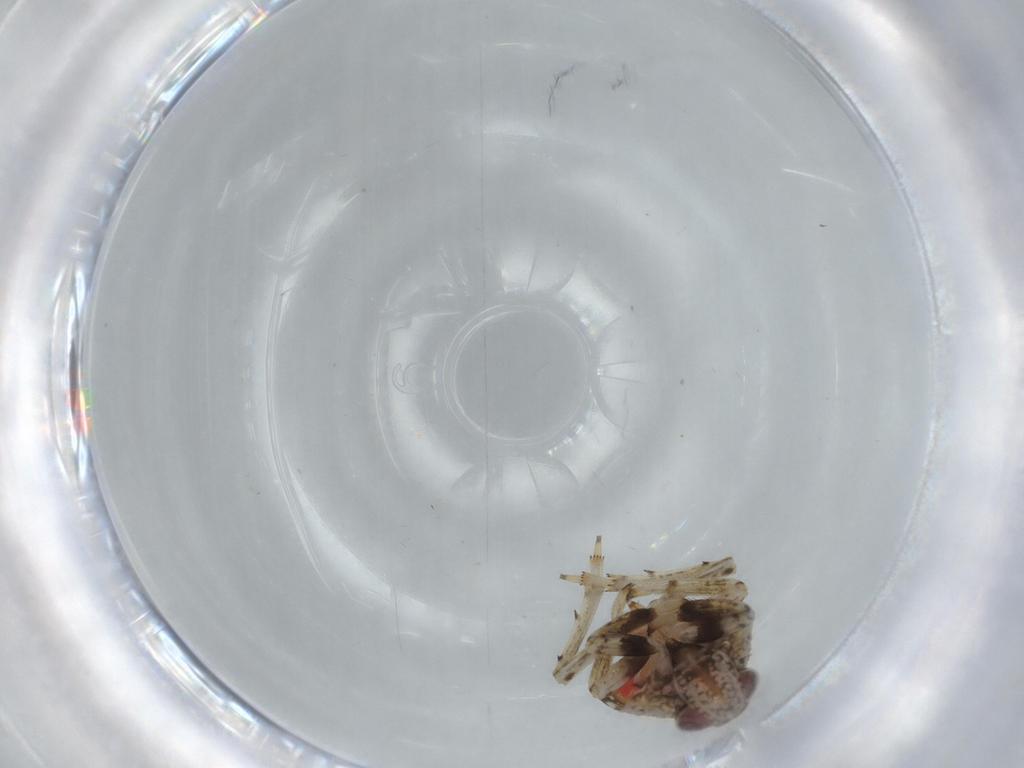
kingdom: Animalia
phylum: Arthropoda
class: Insecta
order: Hemiptera
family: Issidae
